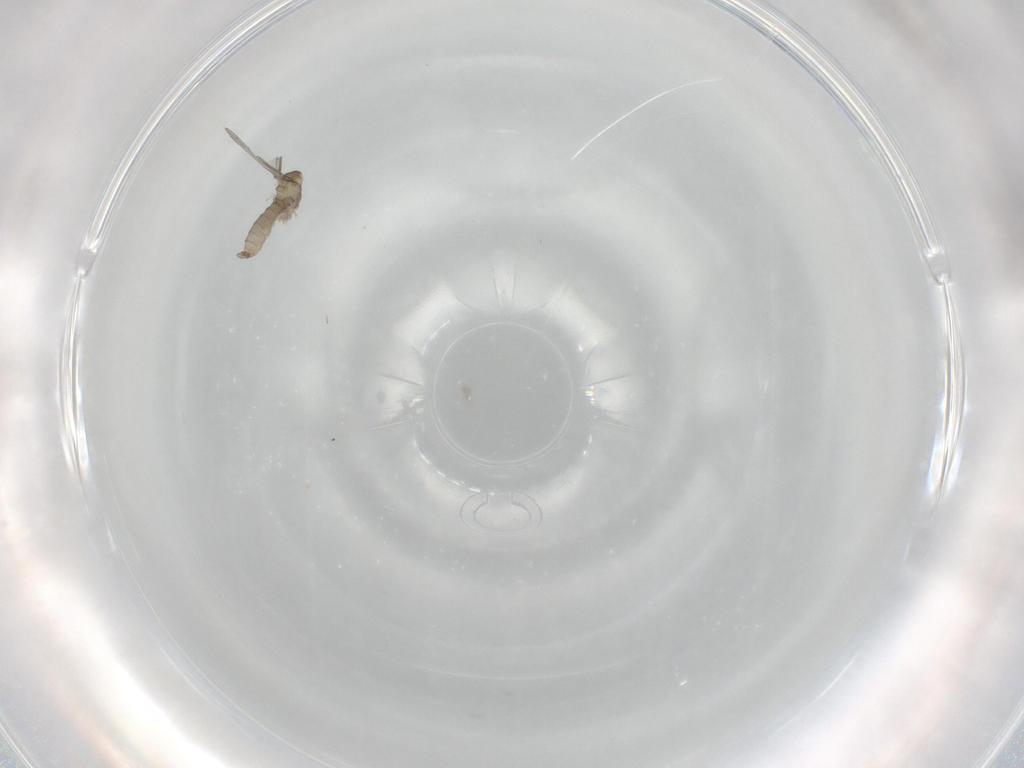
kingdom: Animalia
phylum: Arthropoda
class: Insecta
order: Diptera
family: Cecidomyiidae
